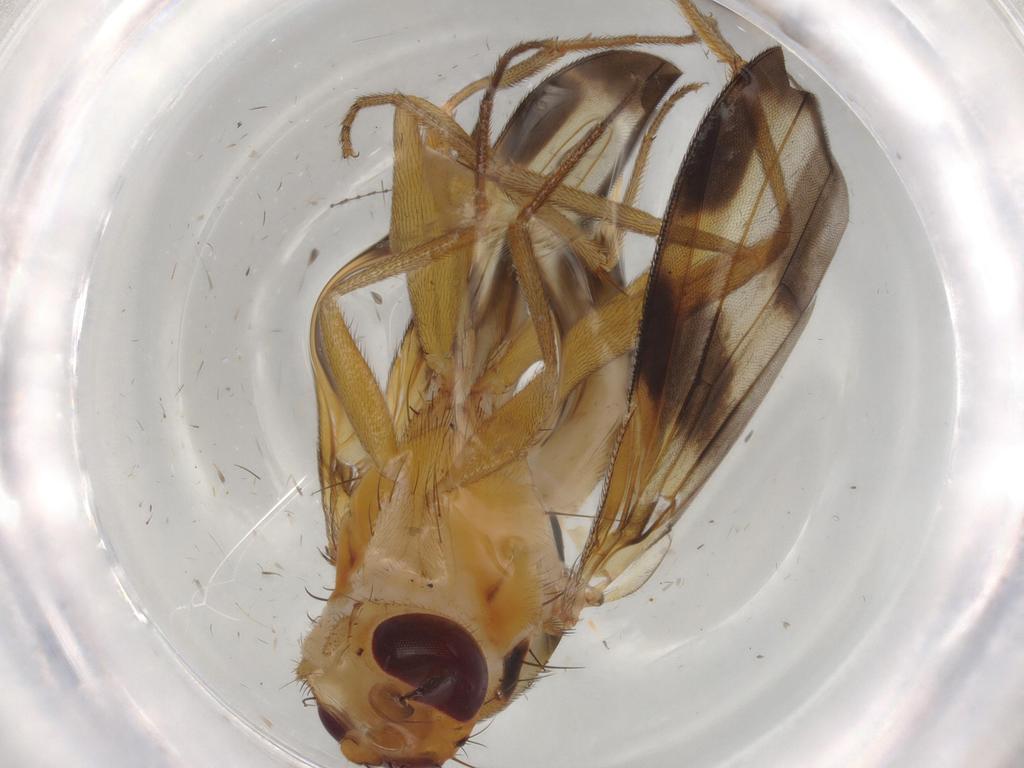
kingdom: Animalia
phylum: Arthropoda
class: Insecta
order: Diptera
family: Clusiidae
